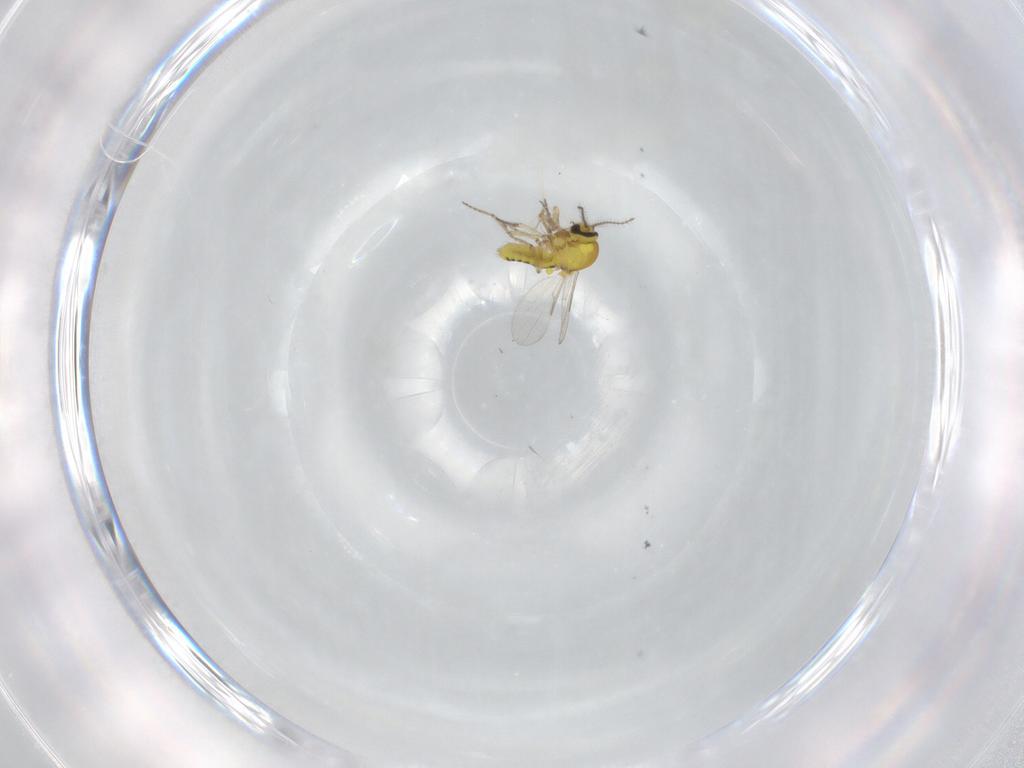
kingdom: Animalia
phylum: Arthropoda
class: Insecta
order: Diptera
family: Ceratopogonidae
